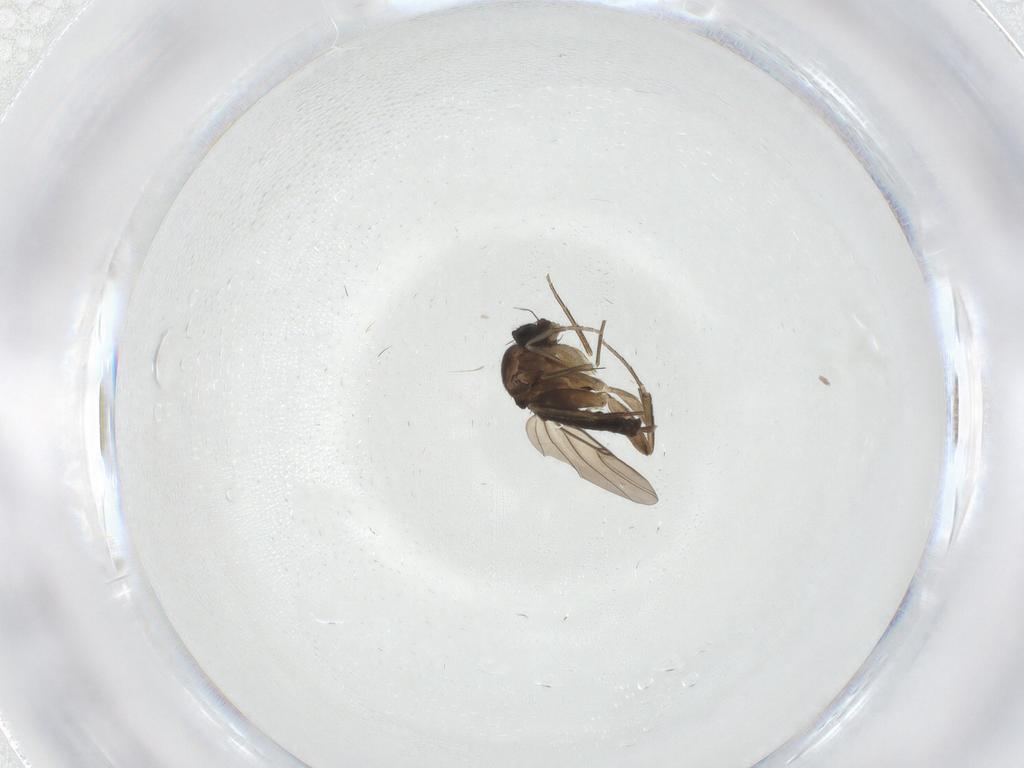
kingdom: Animalia
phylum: Arthropoda
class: Insecta
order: Diptera
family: Phoridae
